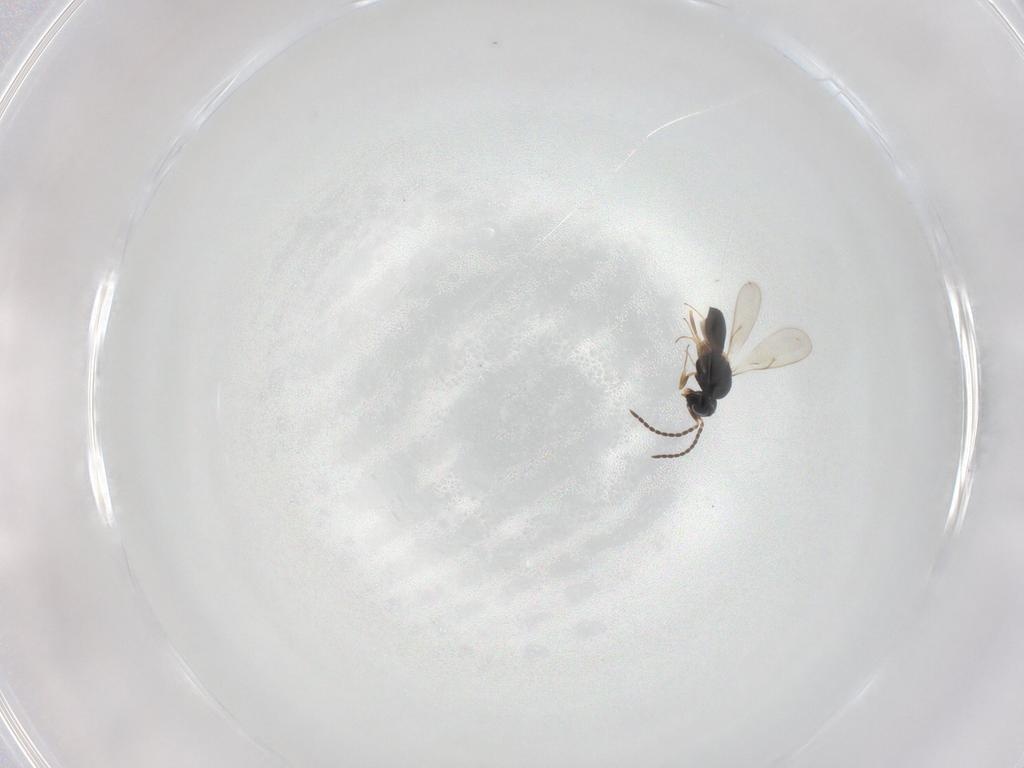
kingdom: Animalia
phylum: Arthropoda
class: Insecta
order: Hymenoptera
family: Scelionidae
